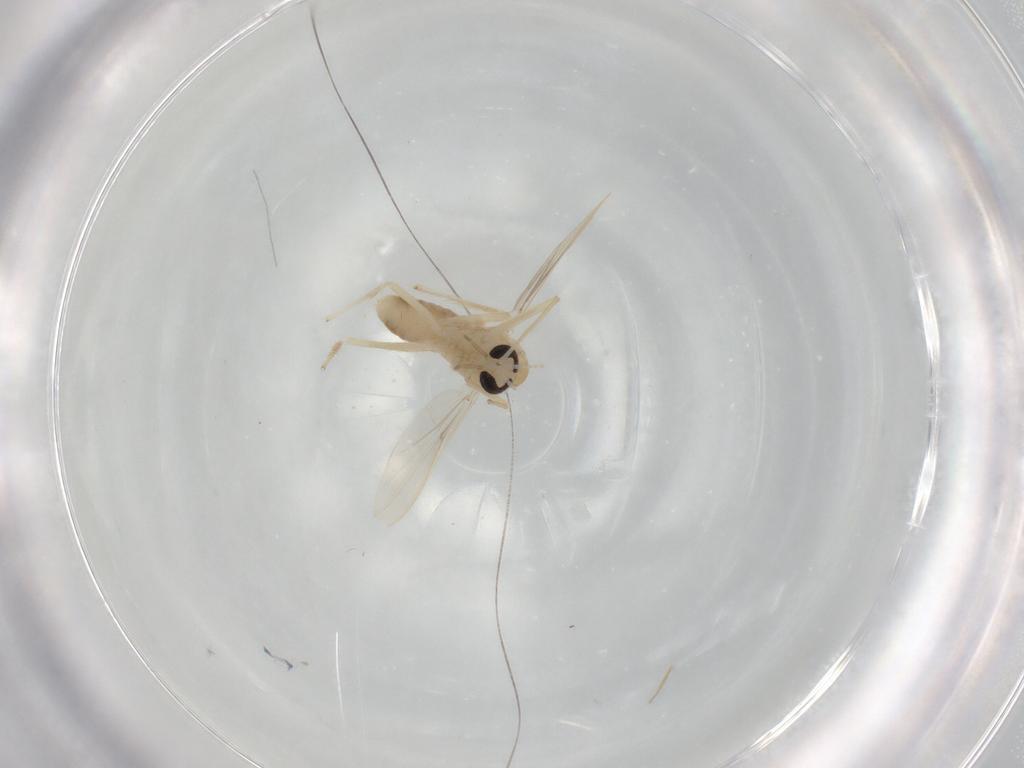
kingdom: Animalia
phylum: Arthropoda
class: Insecta
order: Diptera
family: Chironomidae
